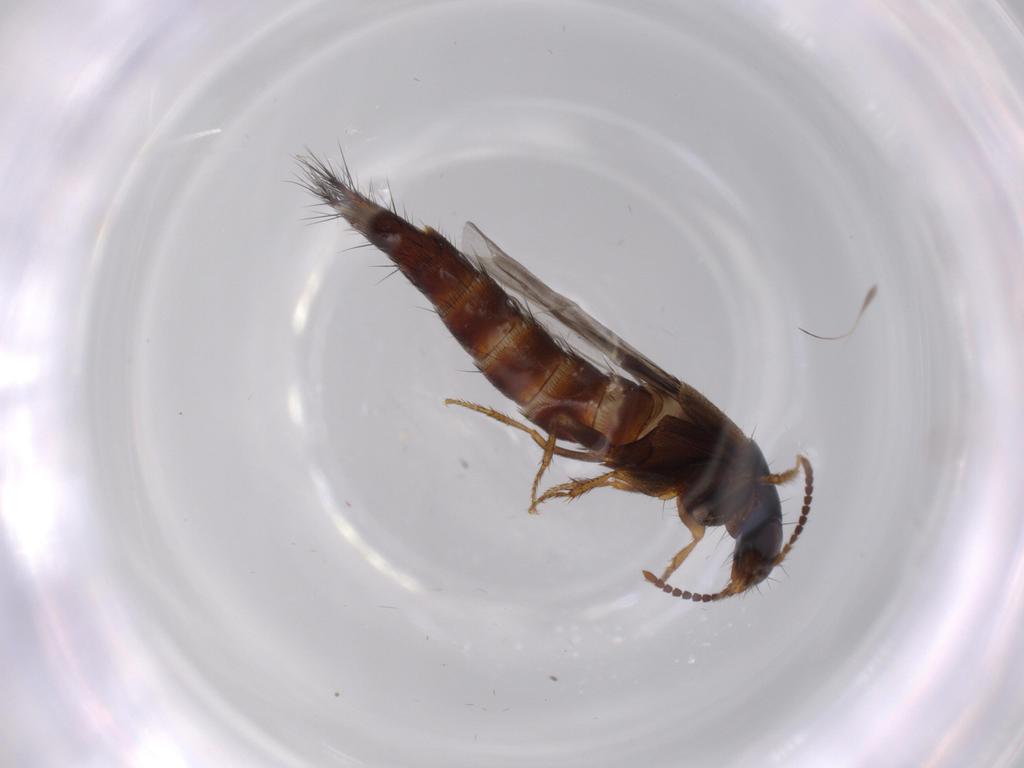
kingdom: Animalia
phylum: Arthropoda
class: Insecta
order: Coleoptera
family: Staphylinidae
